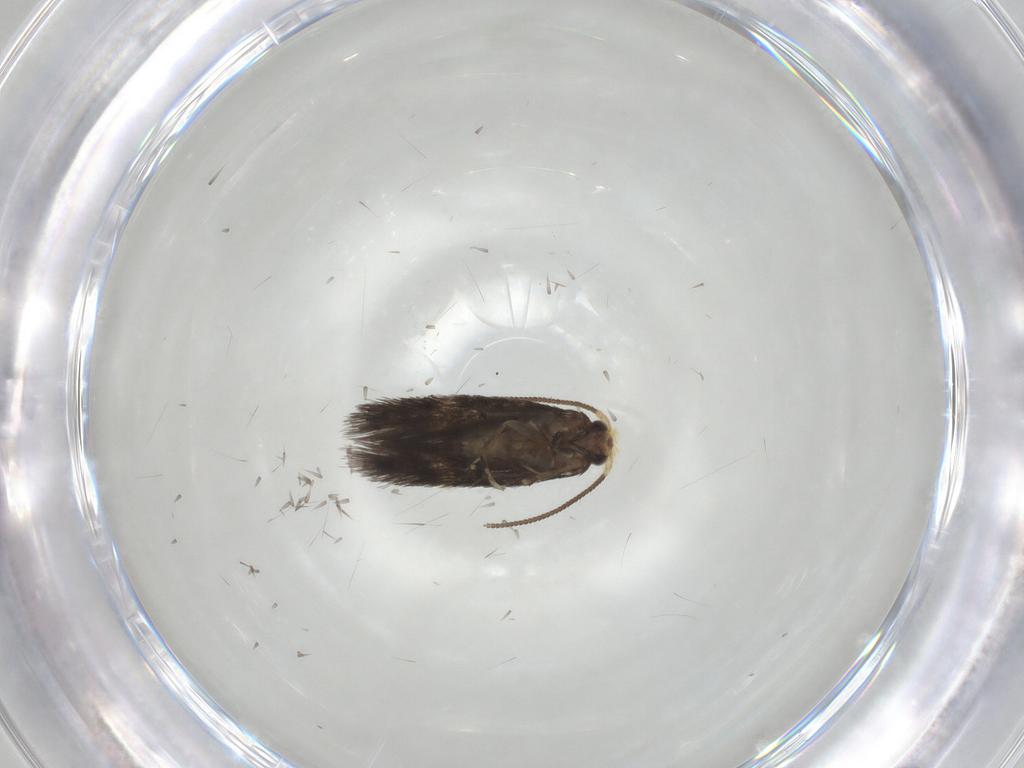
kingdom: Animalia
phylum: Arthropoda
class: Insecta
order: Lepidoptera
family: Nepticulidae
